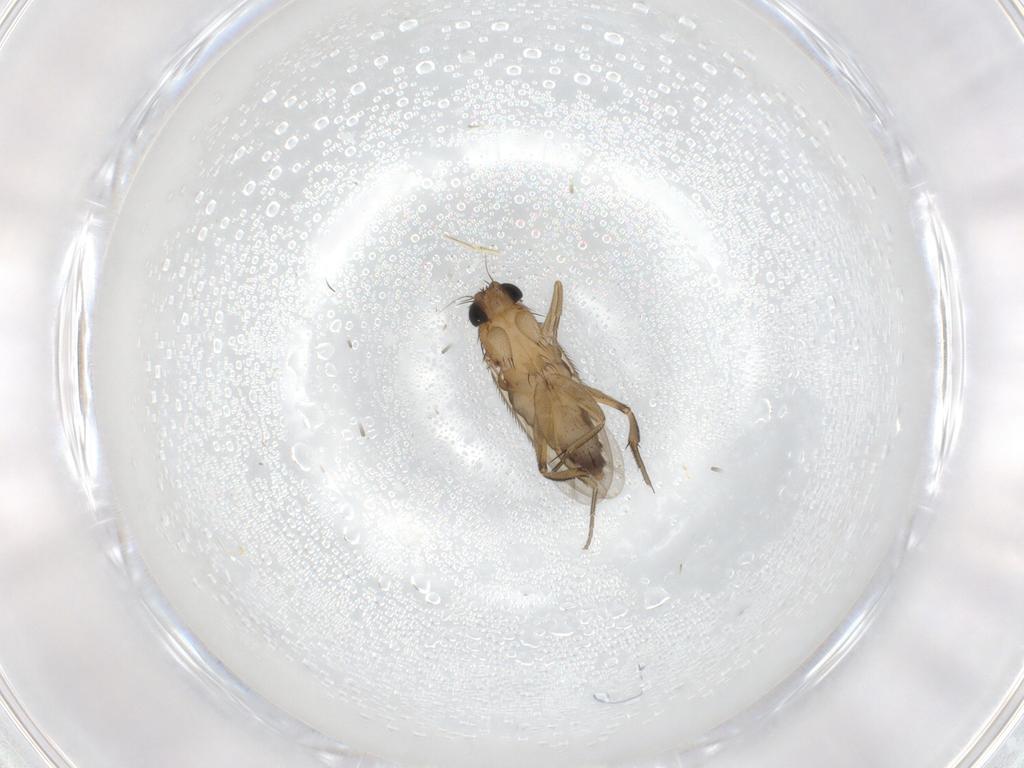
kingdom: Animalia
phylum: Arthropoda
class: Insecta
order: Diptera
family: Phoridae
